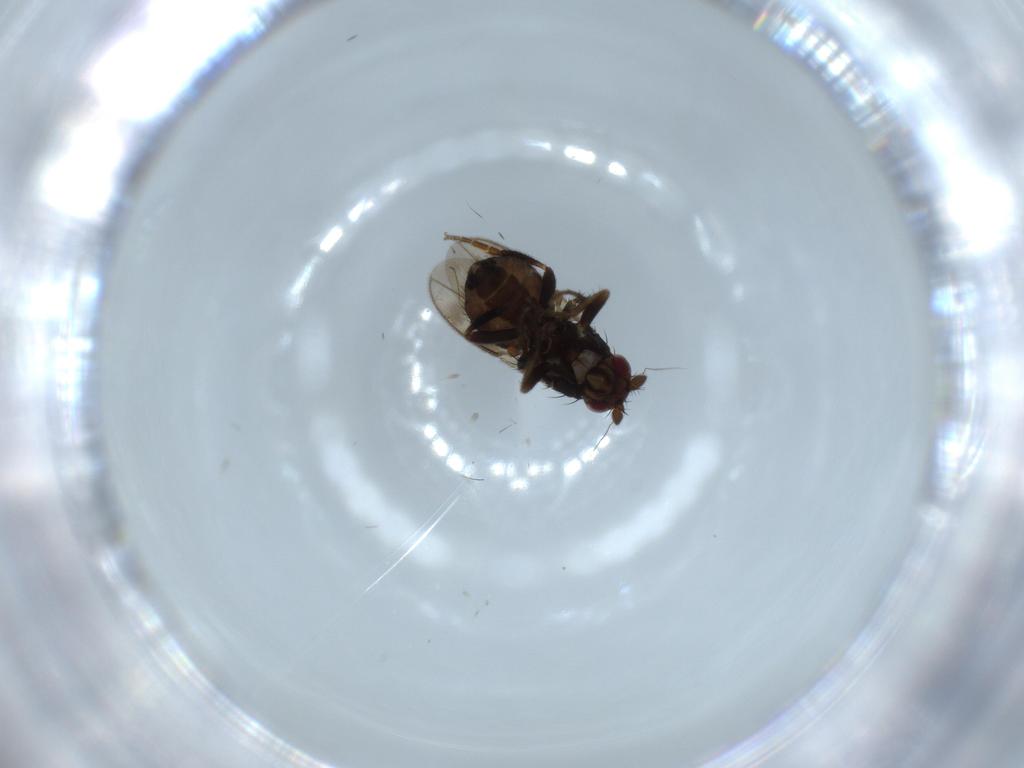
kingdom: Animalia
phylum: Arthropoda
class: Insecta
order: Diptera
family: Sphaeroceridae
